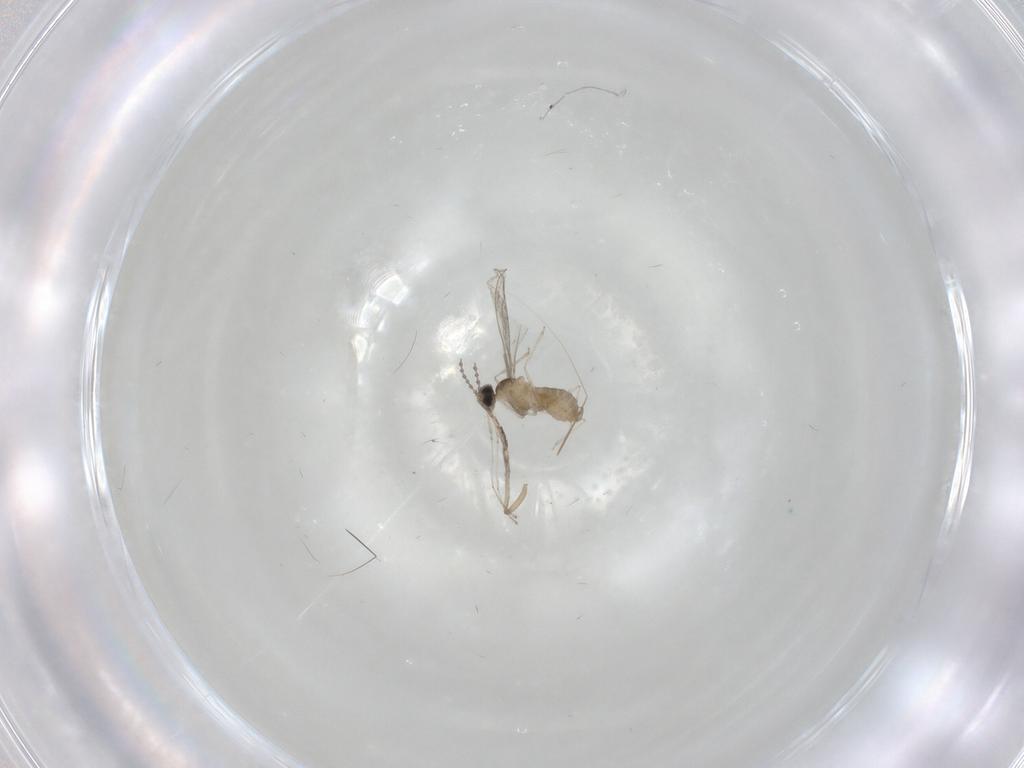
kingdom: Animalia
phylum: Arthropoda
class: Insecta
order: Diptera
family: Cecidomyiidae
